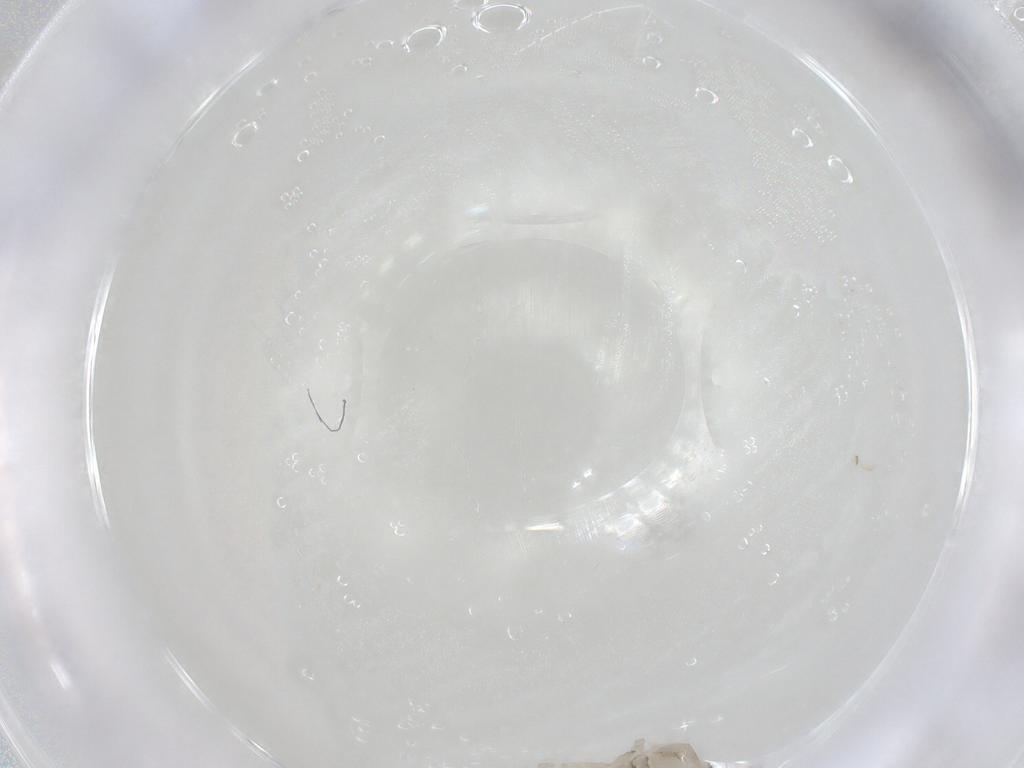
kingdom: Animalia
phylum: Arthropoda
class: Arachnida
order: Araneae
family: Clubionidae
